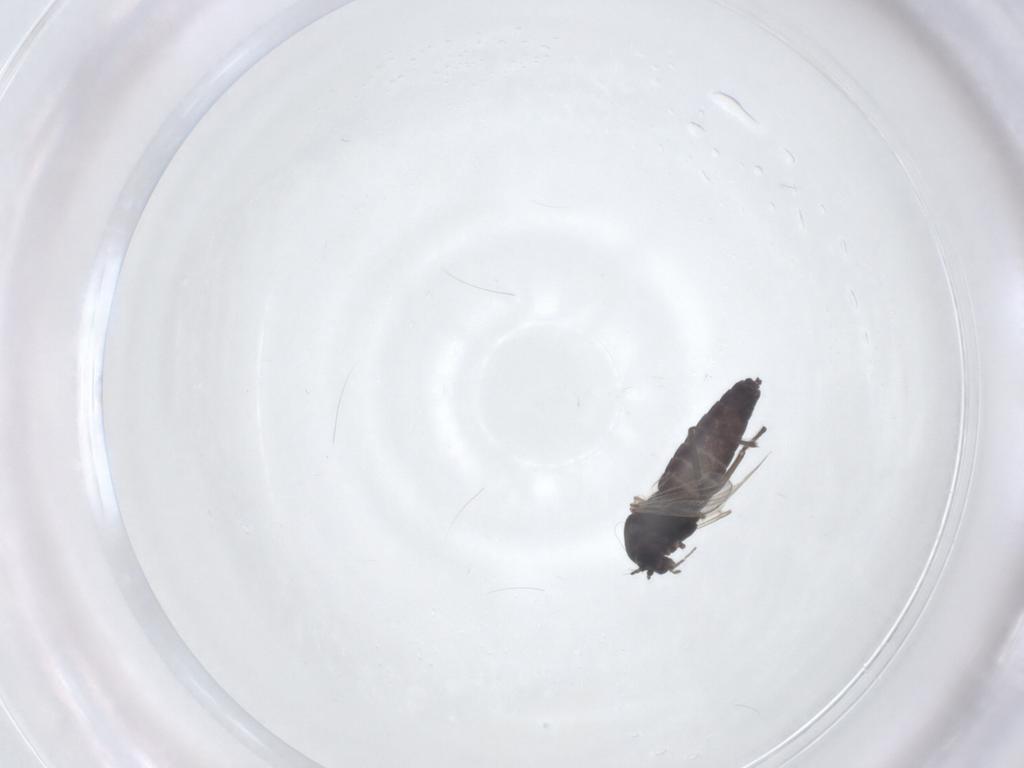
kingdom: Animalia
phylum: Arthropoda
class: Insecta
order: Diptera
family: Chironomidae
